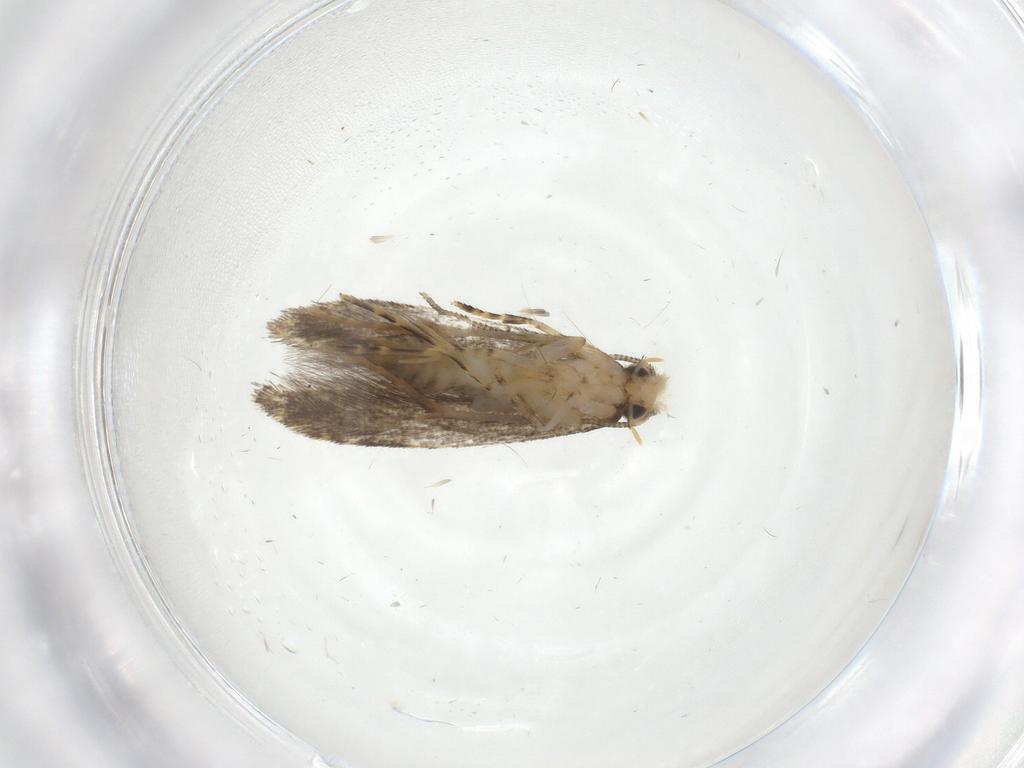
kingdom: Animalia
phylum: Arthropoda
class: Insecta
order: Lepidoptera
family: Tineidae
